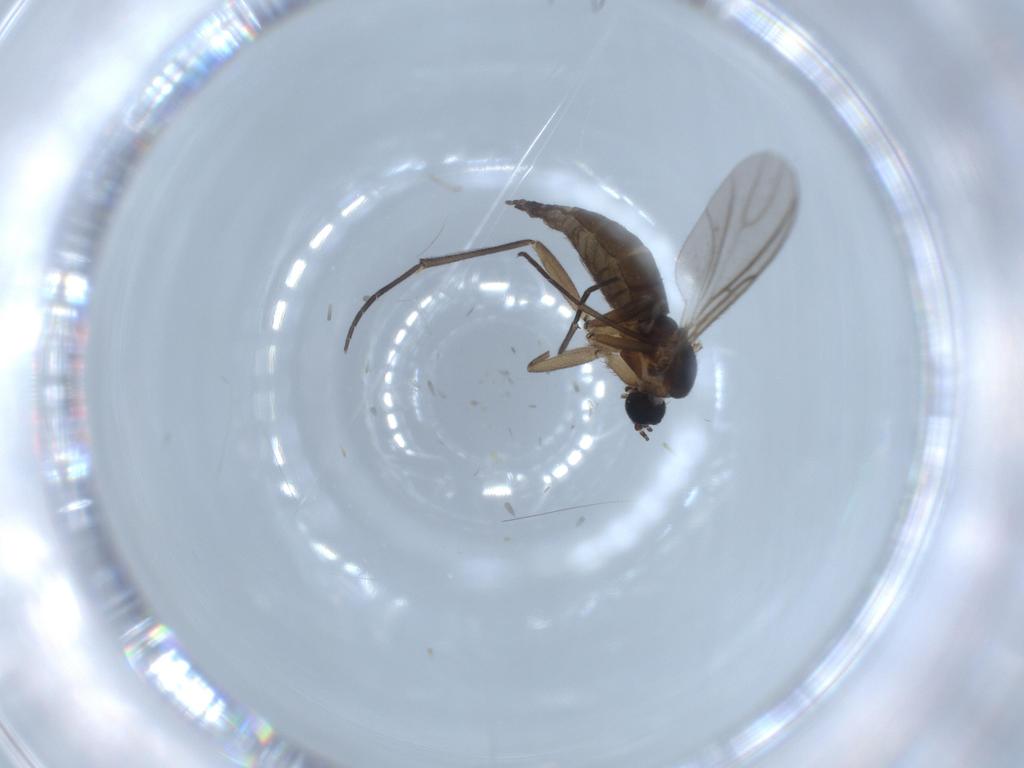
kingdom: Animalia
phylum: Arthropoda
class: Insecta
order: Diptera
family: Sciaridae
